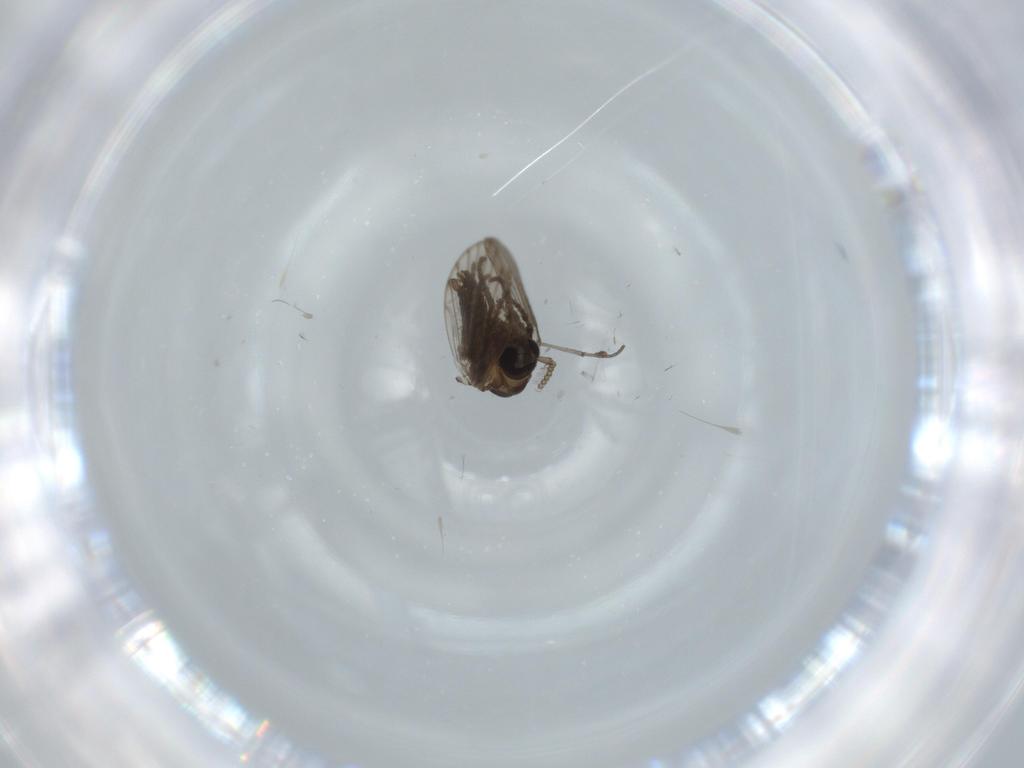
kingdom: Animalia
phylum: Arthropoda
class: Insecta
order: Diptera
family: Psychodidae
